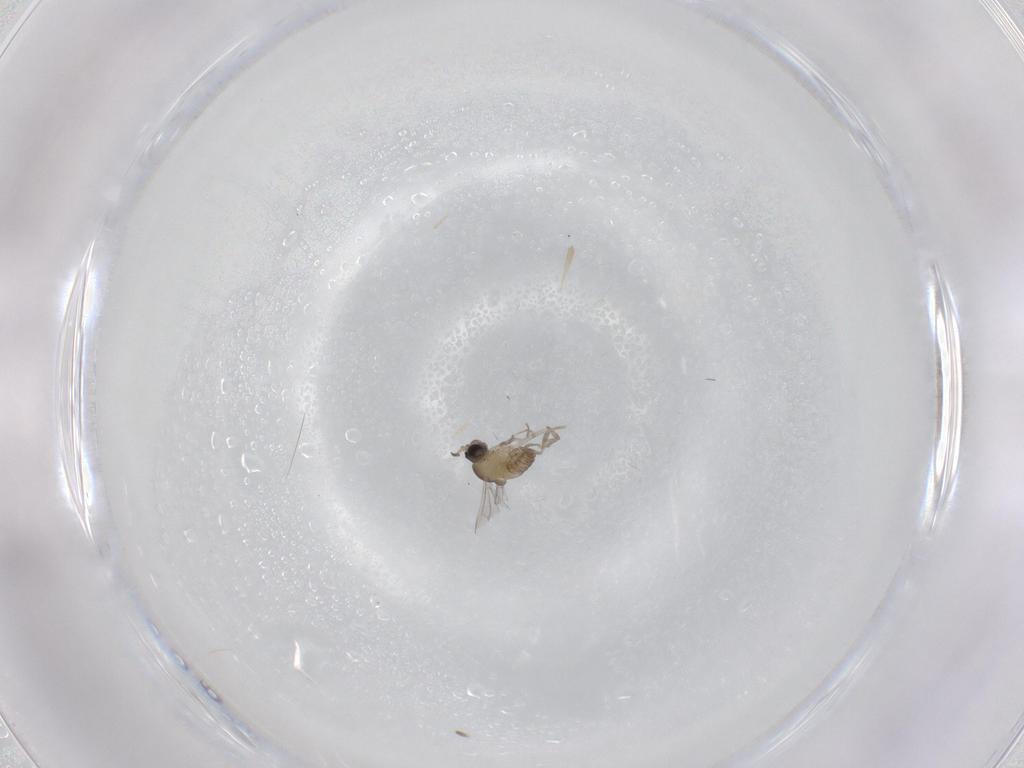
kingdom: Animalia
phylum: Arthropoda
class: Insecta
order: Diptera
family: Cecidomyiidae
